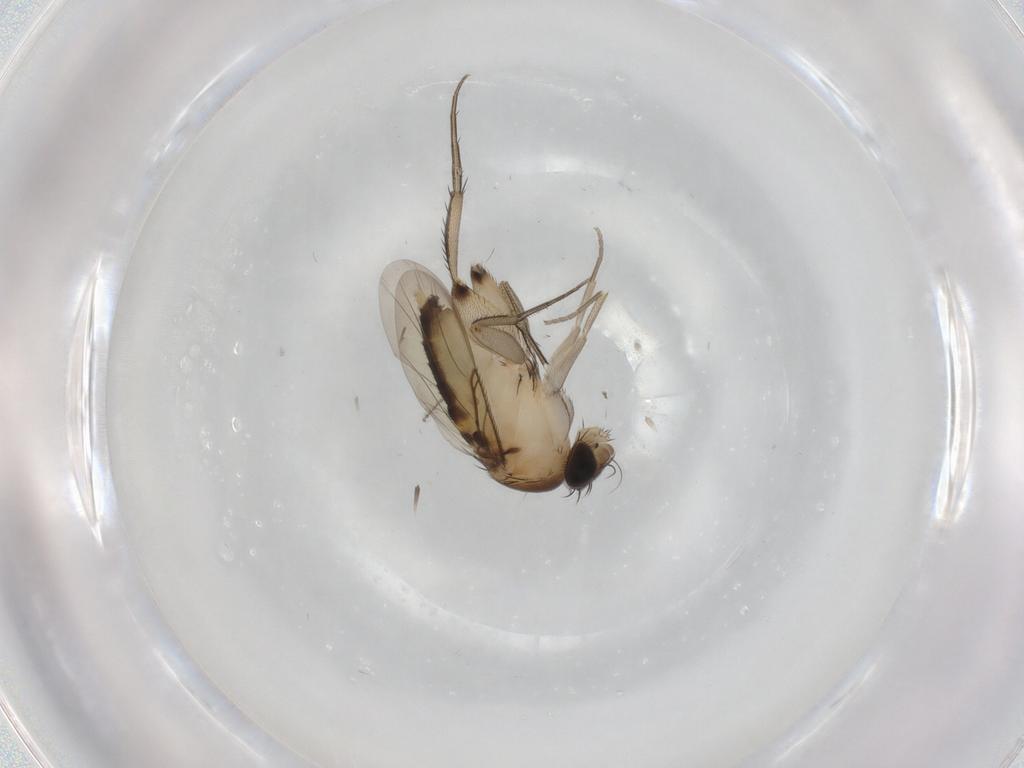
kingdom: Animalia
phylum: Arthropoda
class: Insecta
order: Diptera
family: Phoridae
